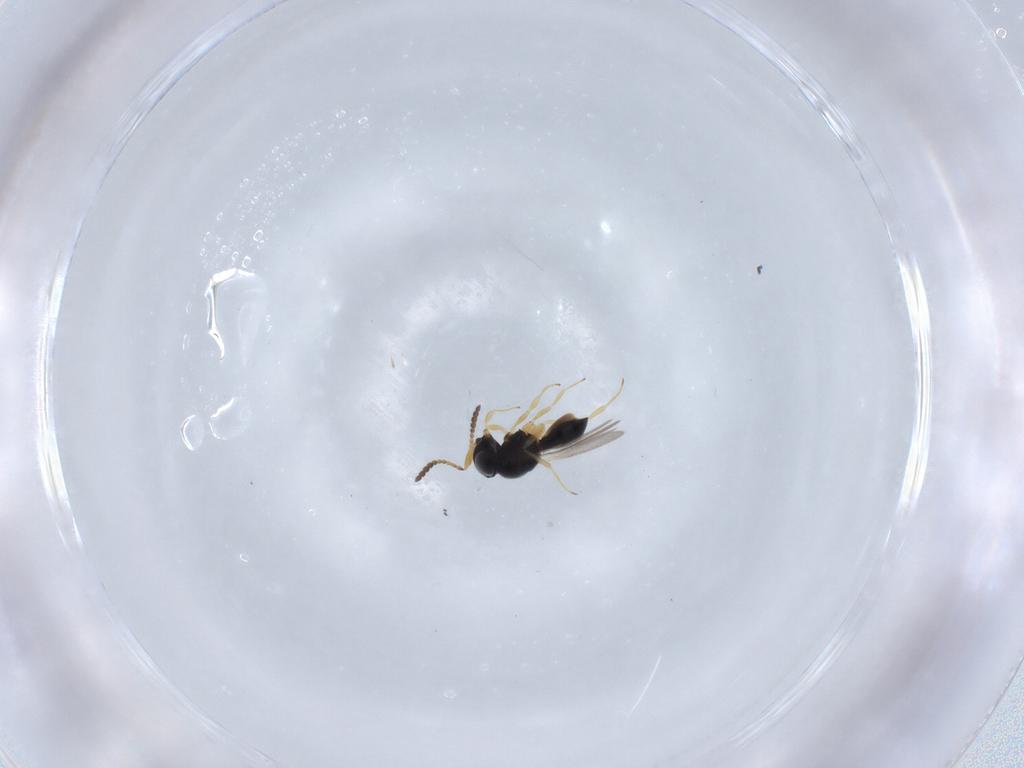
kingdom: Animalia
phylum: Arthropoda
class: Insecta
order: Hymenoptera
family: Scelionidae
